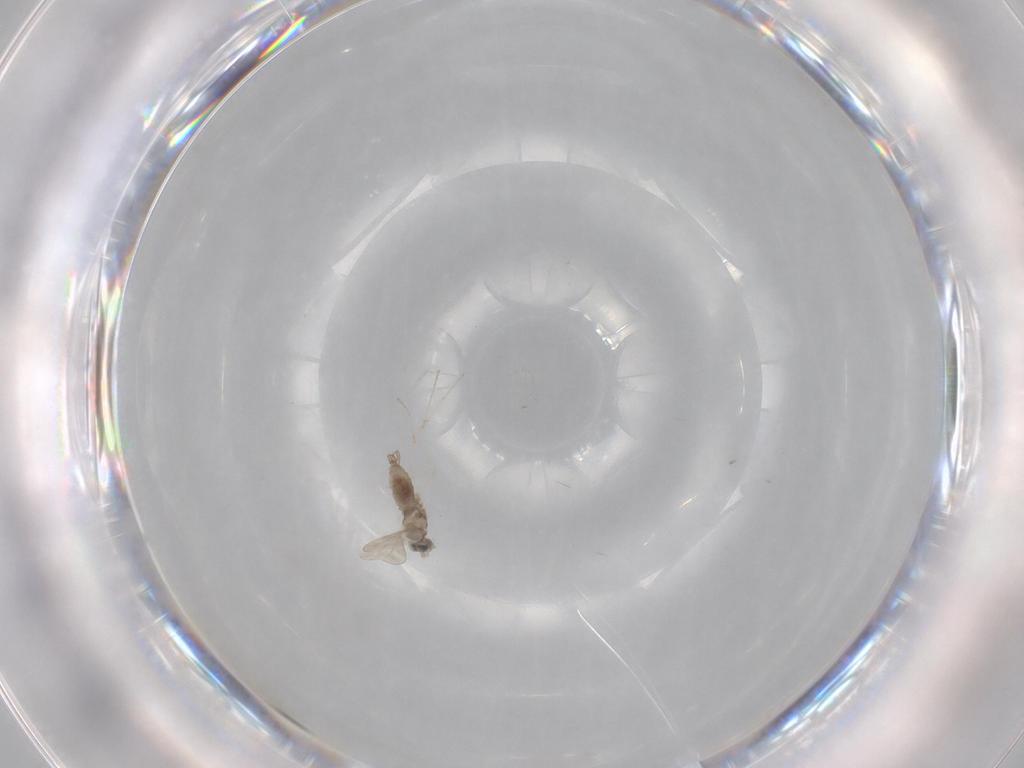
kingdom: Animalia
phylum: Arthropoda
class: Insecta
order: Diptera
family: Cecidomyiidae
